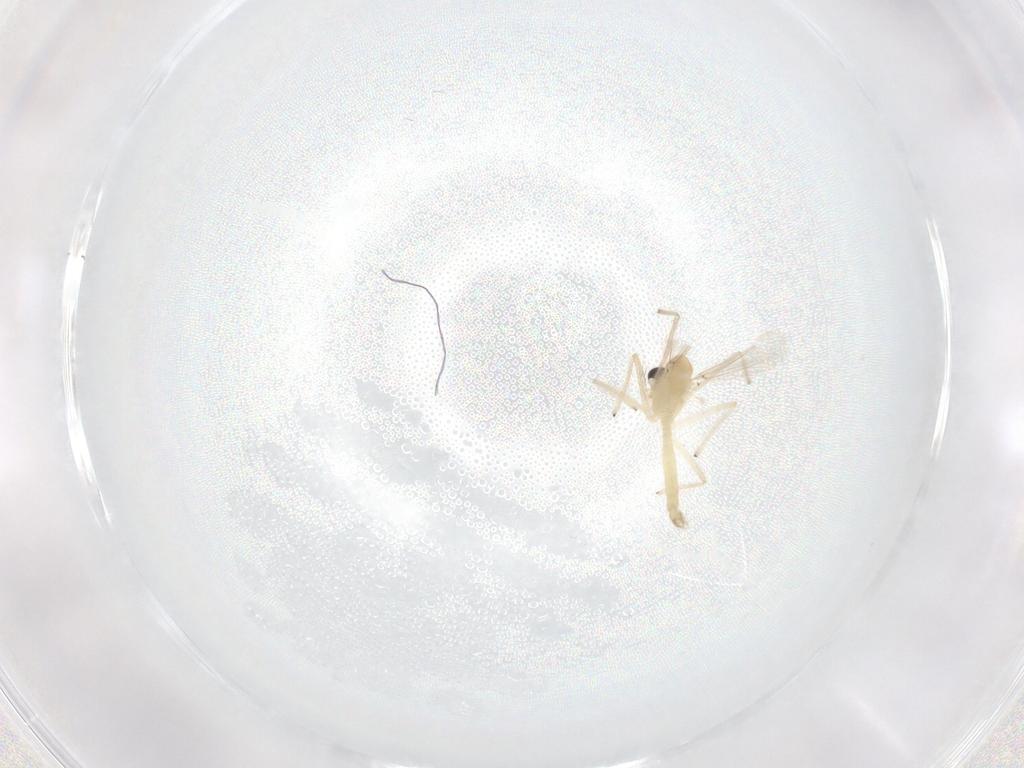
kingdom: Animalia
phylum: Arthropoda
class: Insecta
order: Diptera
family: Chironomidae
